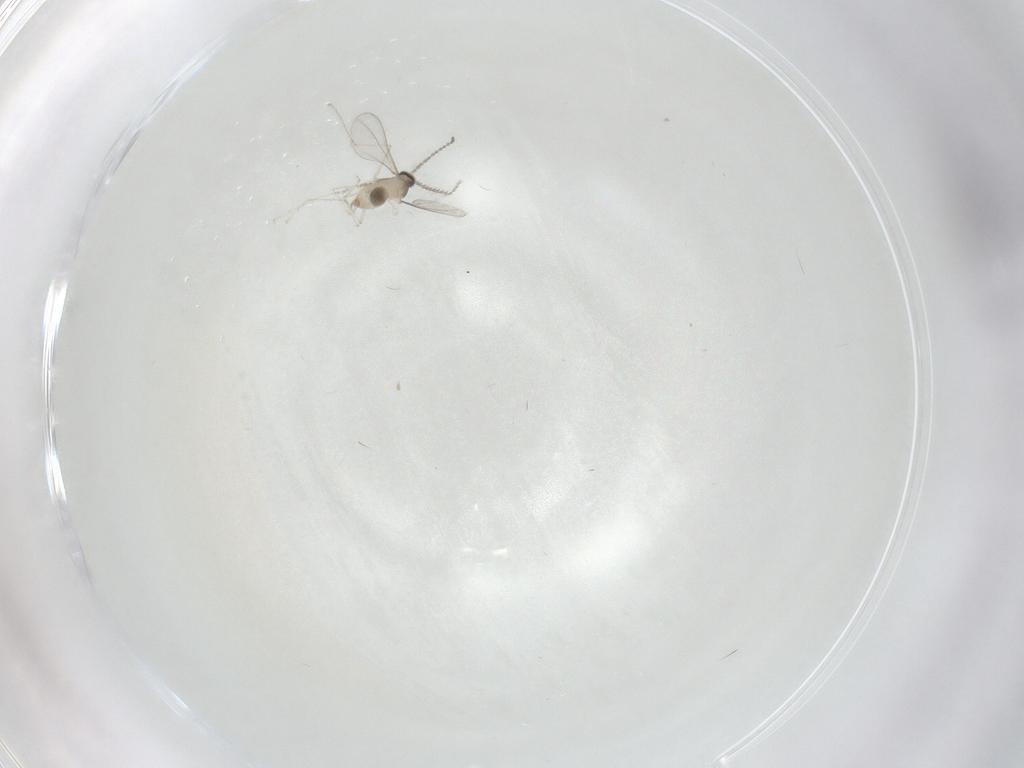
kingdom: Animalia
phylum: Arthropoda
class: Insecta
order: Diptera
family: Cecidomyiidae
